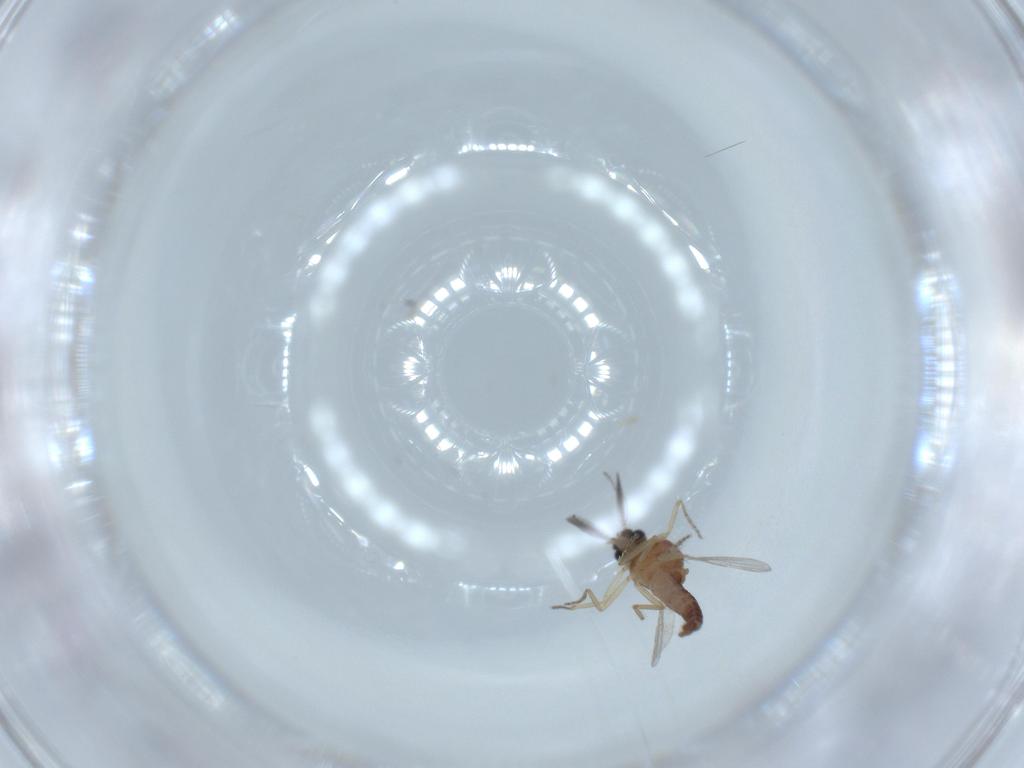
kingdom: Animalia
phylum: Arthropoda
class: Insecta
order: Diptera
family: Ceratopogonidae
